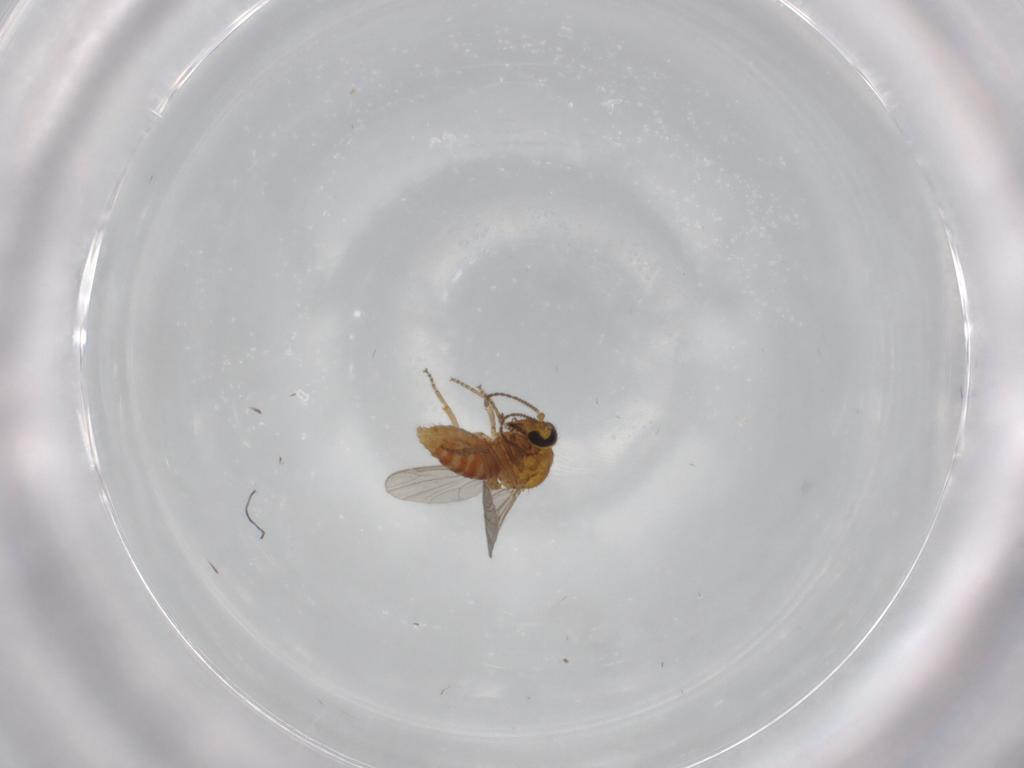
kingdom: Animalia
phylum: Arthropoda
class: Insecta
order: Diptera
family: Ceratopogonidae
